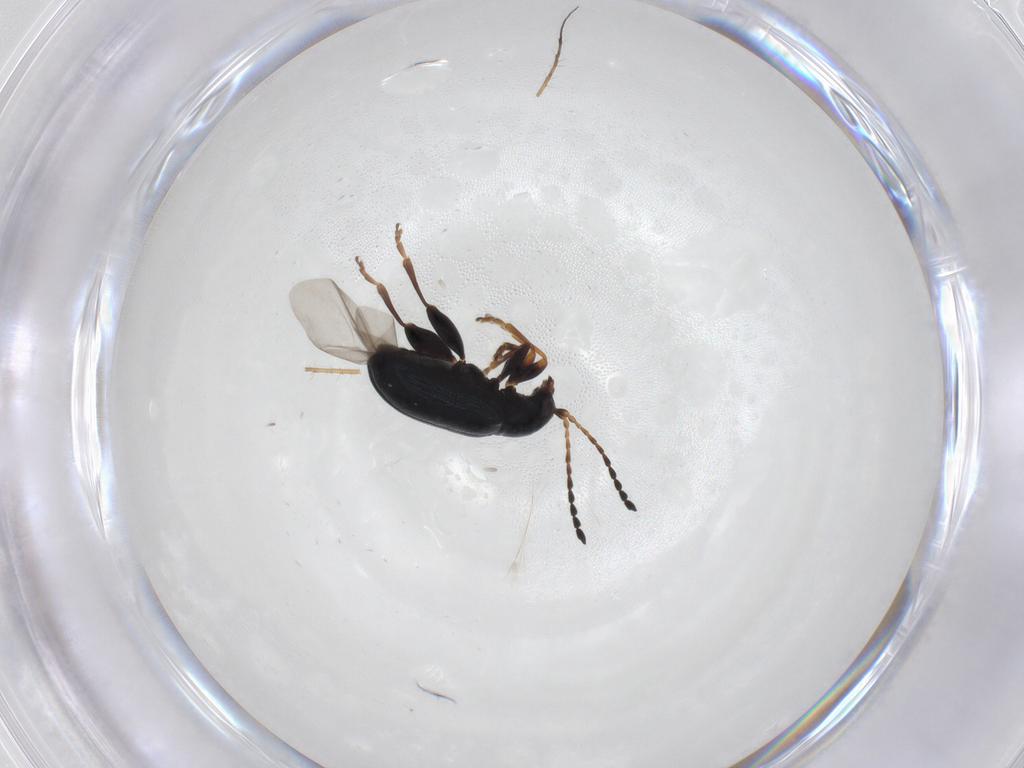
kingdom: Animalia
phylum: Arthropoda
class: Insecta
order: Coleoptera
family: Chrysomelidae
